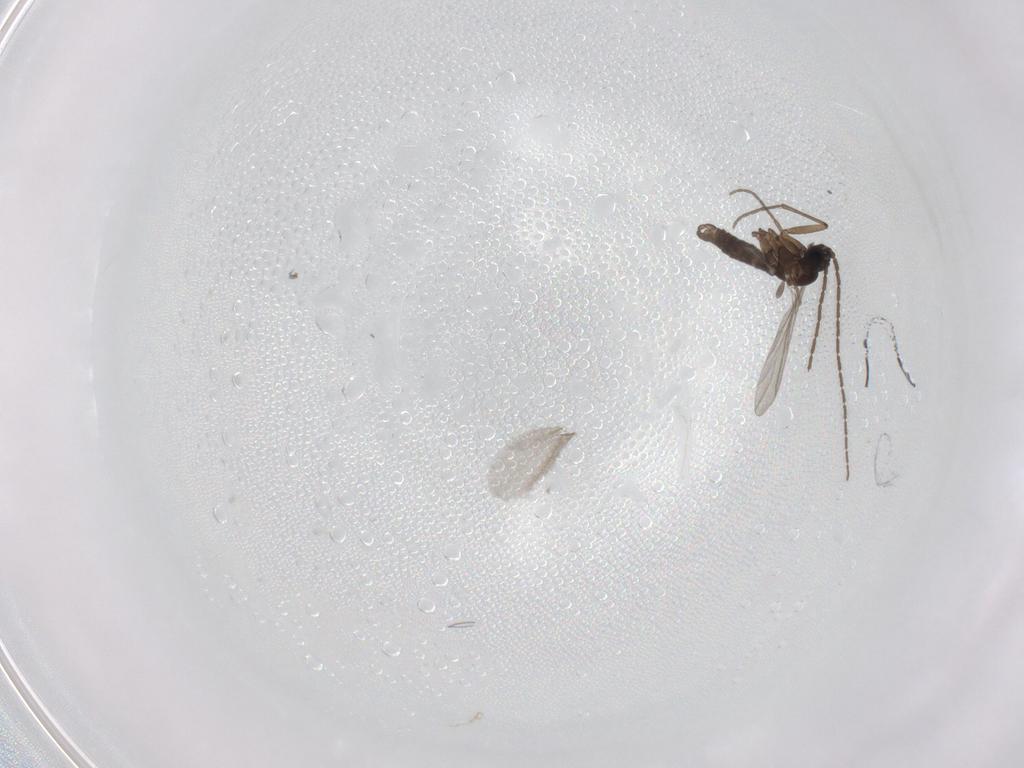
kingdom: Animalia
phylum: Arthropoda
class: Insecta
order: Diptera
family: Sciaridae
